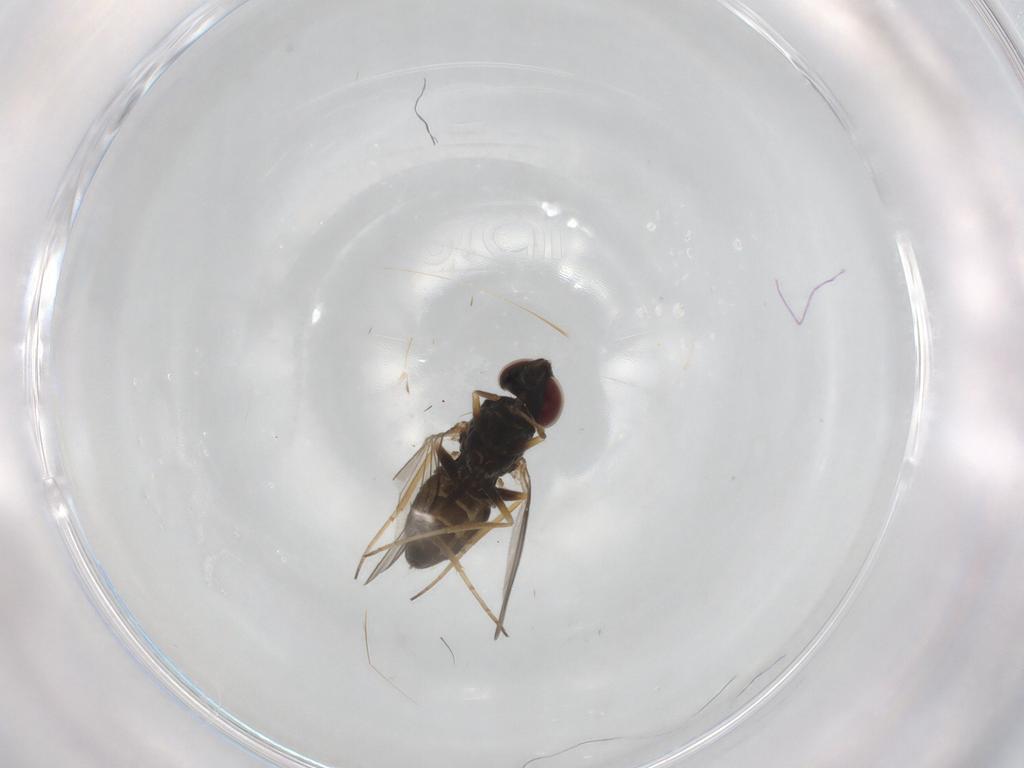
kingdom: Animalia
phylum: Arthropoda
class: Insecta
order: Diptera
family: Dolichopodidae
